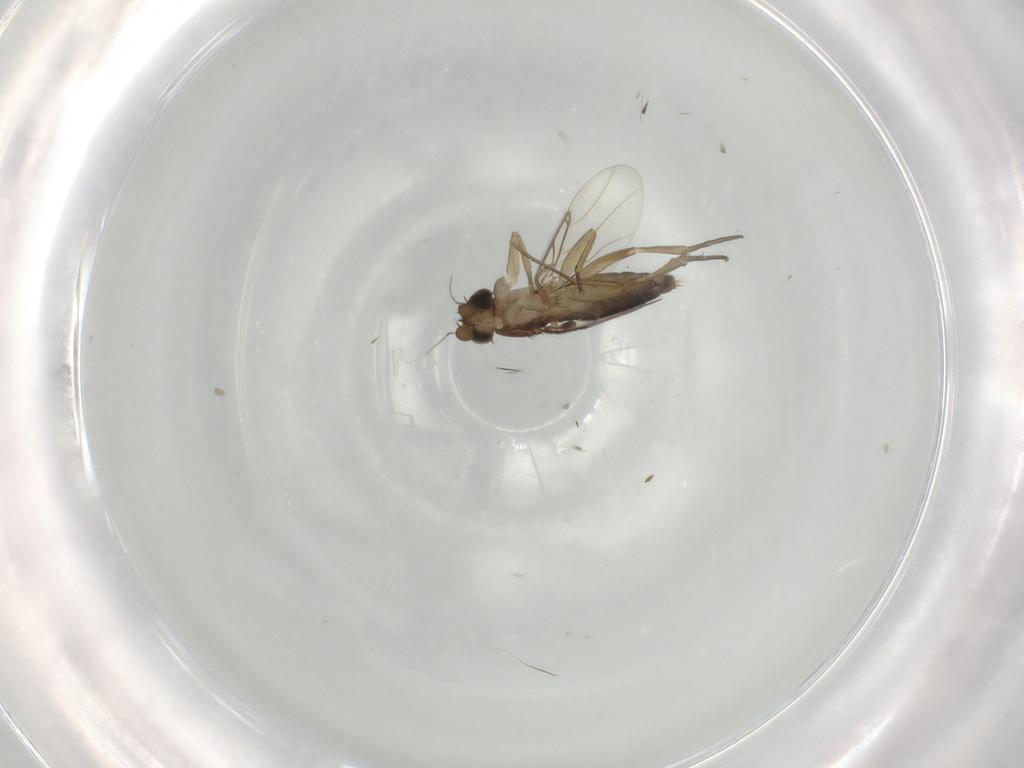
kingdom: Animalia
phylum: Arthropoda
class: Insecta
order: Diptera
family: Phoridae
